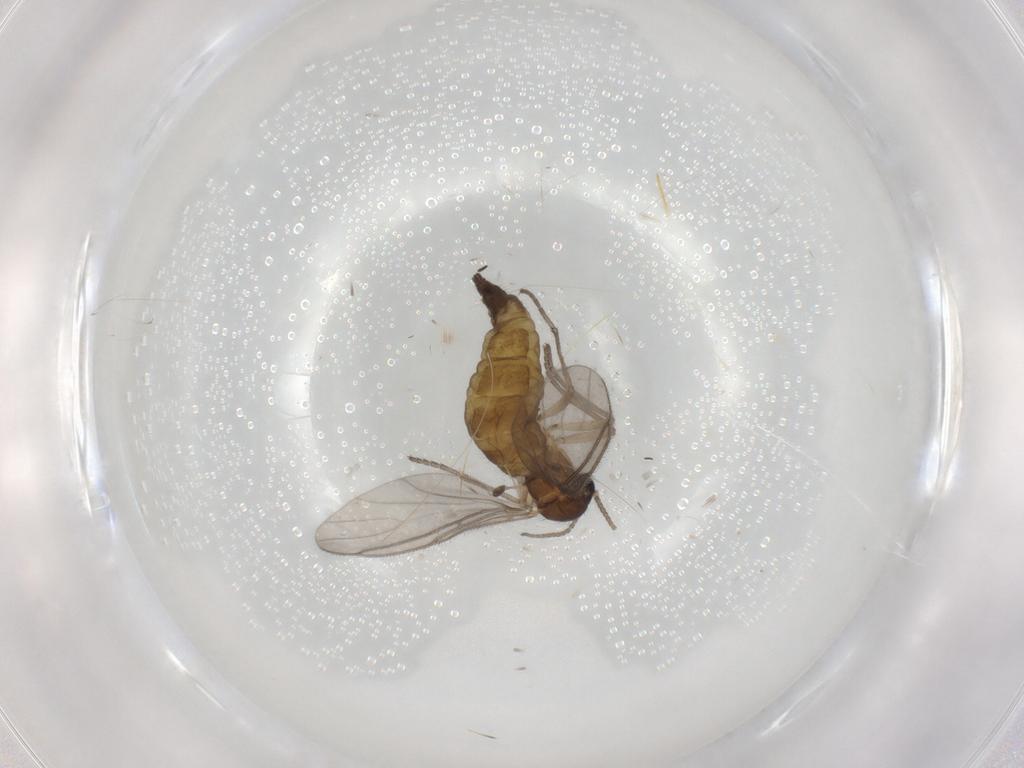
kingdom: Animalia
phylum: Arthropoda
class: Insecta
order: Diptera
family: Sciaridae
